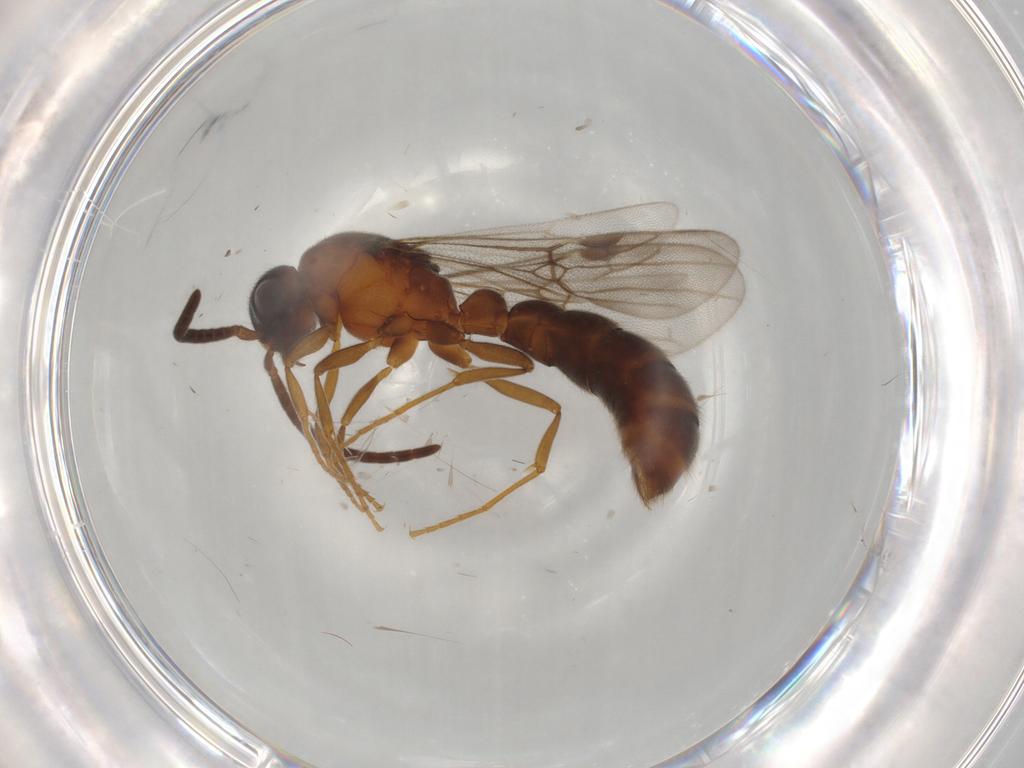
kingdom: Animalia
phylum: Arthropoda
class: Insecta
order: Hymenoptera
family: Formicidae
